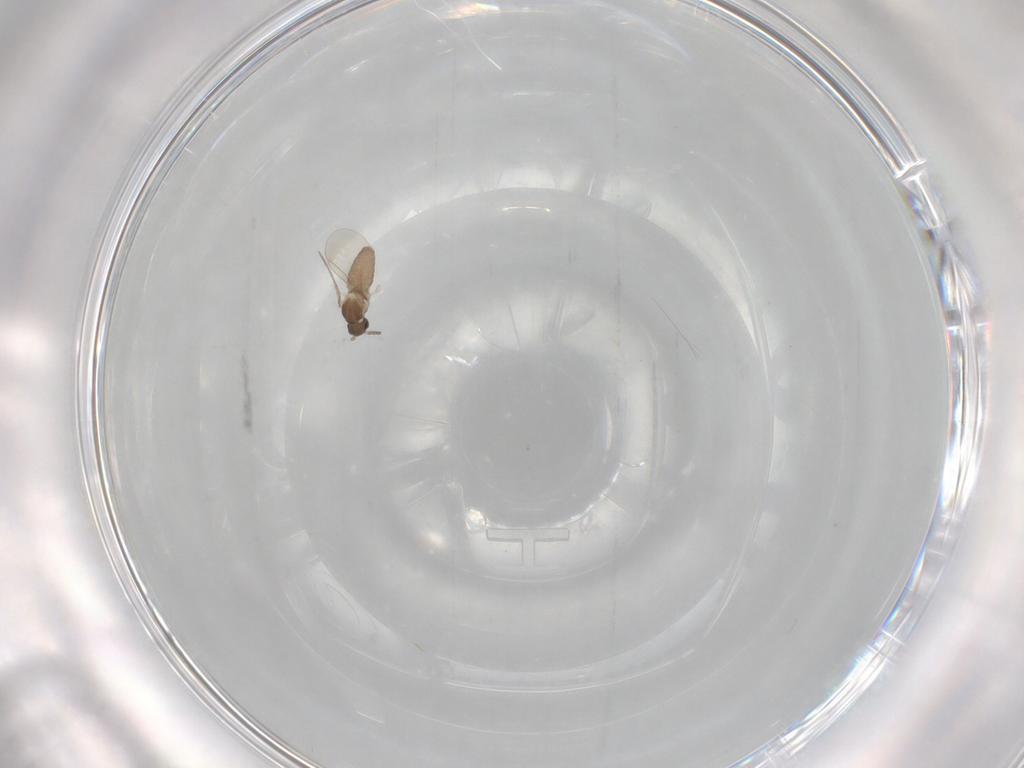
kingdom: Animalia
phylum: Arthropoda
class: Insecta
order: Diptera
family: Cecidomyiidae
